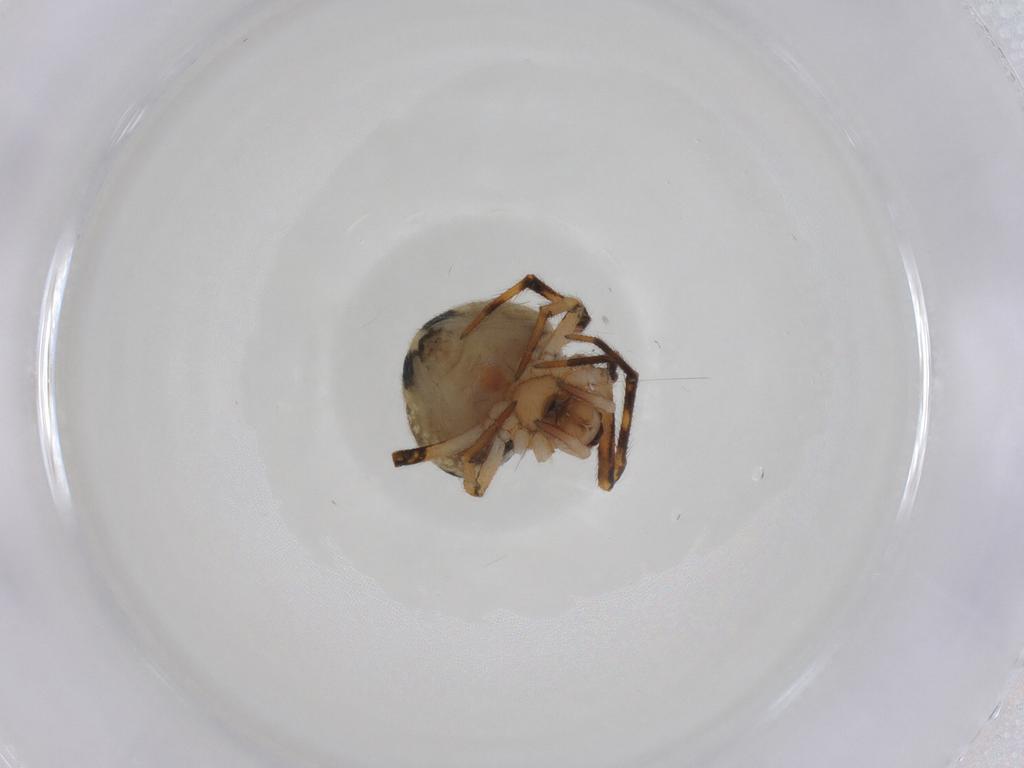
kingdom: Animalia
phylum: Arthropoda
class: Arachnida
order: Araneae
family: Theridiidae
